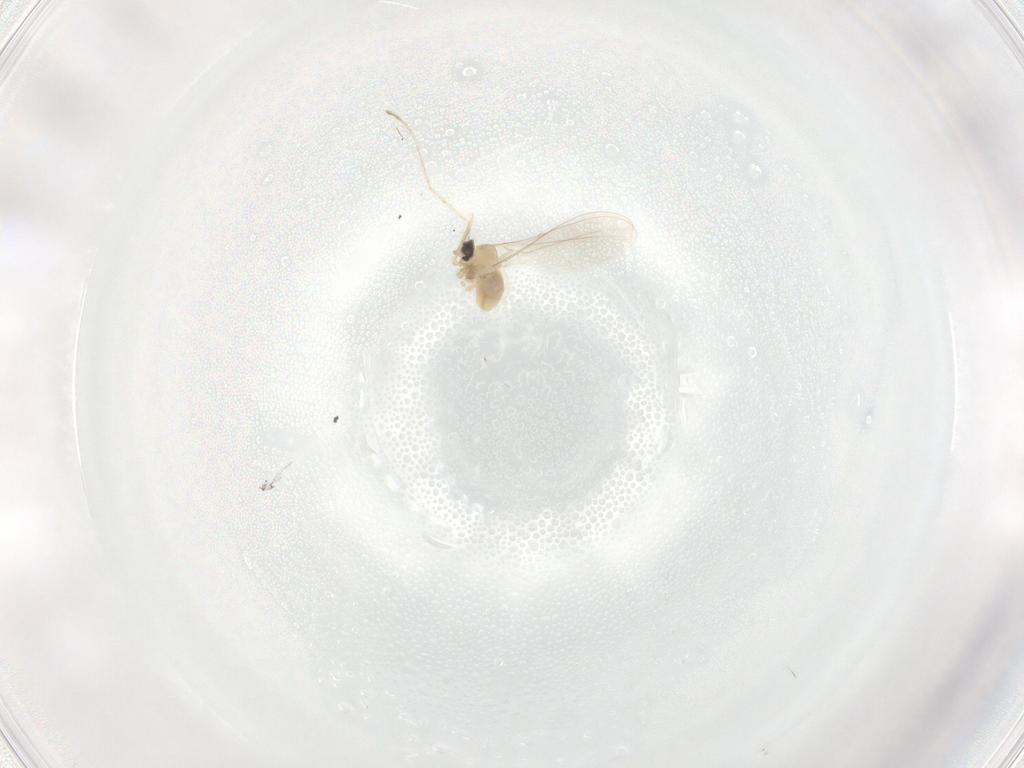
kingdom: Animalia
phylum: Arthropoda
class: Insecta
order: Diptera
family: Cecidomyiidae
